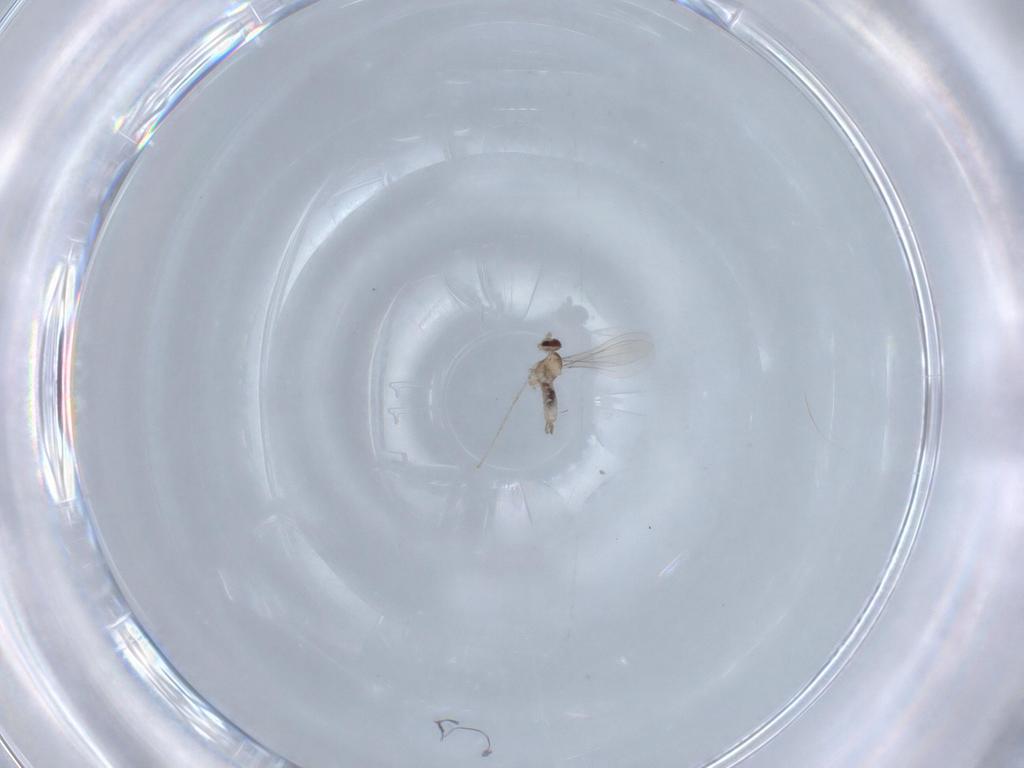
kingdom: Animalia
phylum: Arthropoda
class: Insecta
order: Diptera
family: Cecidomyiidae
